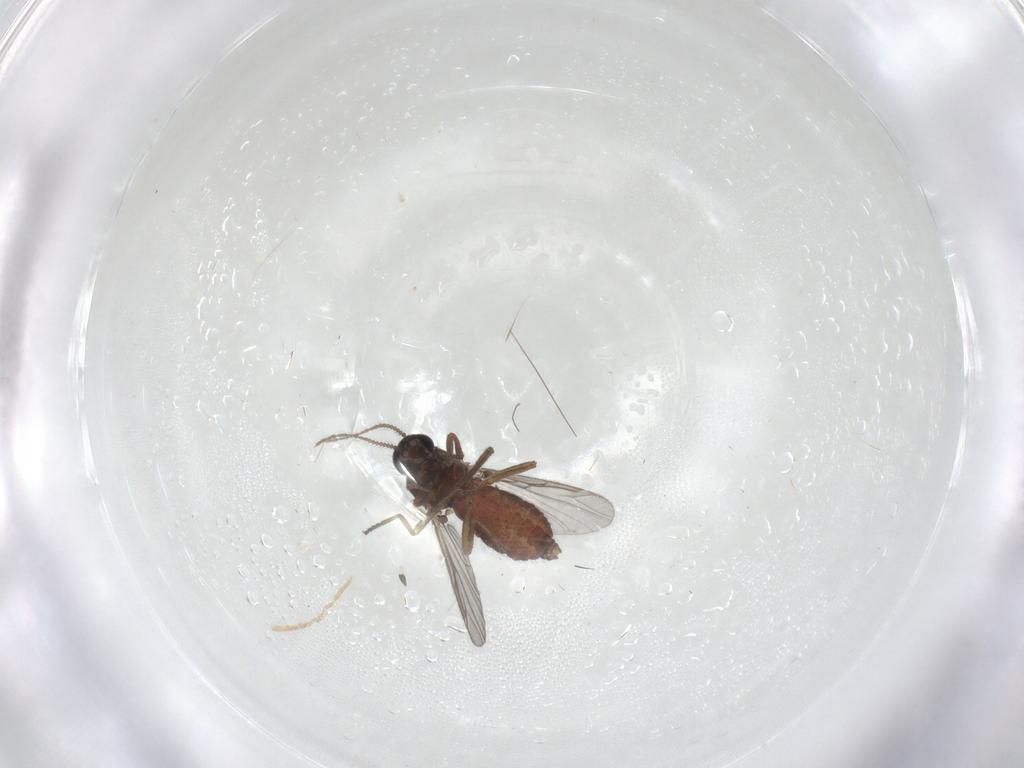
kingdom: Animalia
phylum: Arthropoda
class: Insecta
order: Diptera
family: Ceratopogonidae
